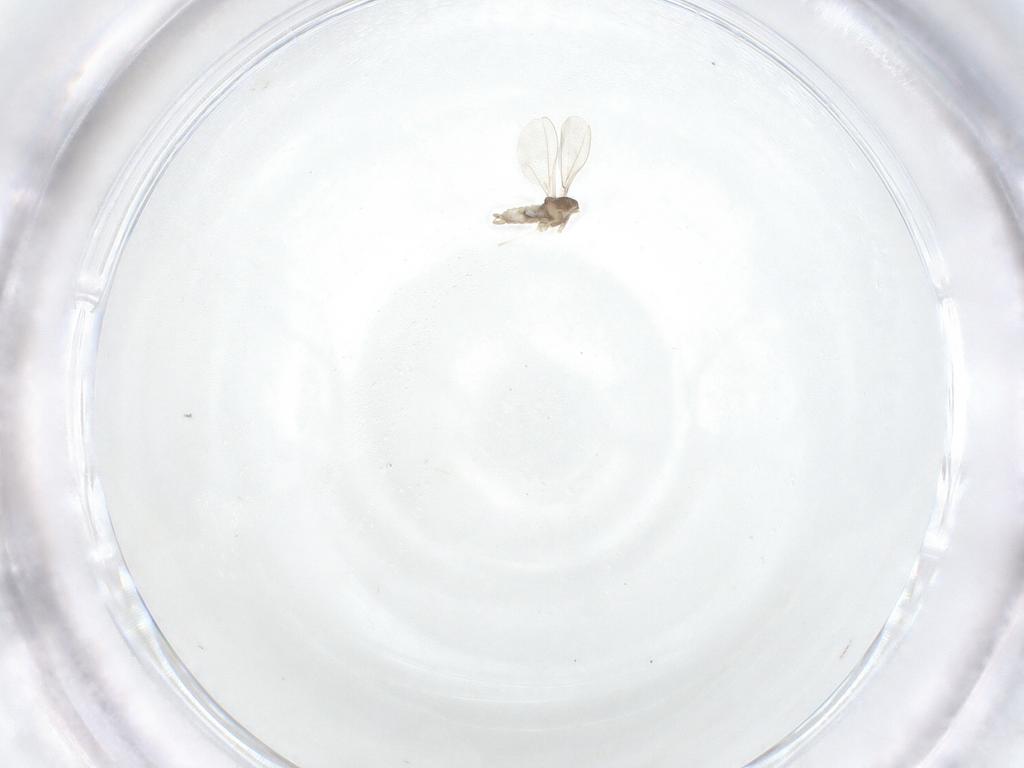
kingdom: Animalia
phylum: Arthropoda
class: Insecta
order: Diptera
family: Cecidomyiidae
